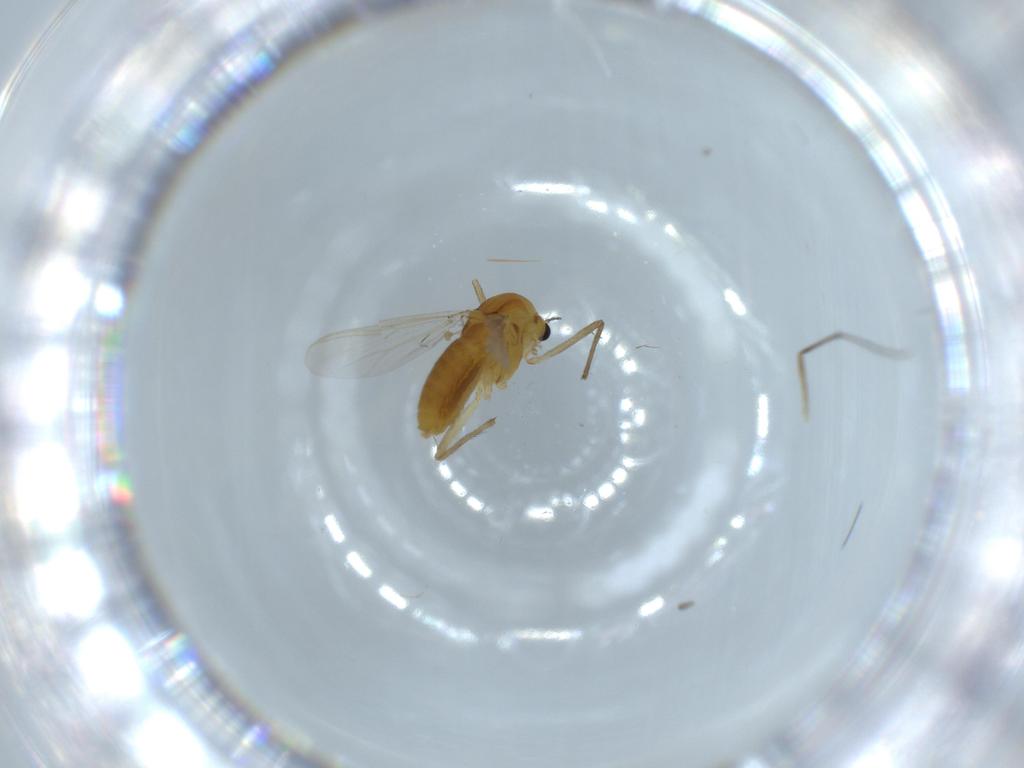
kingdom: Animalia
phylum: Arthropoda
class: Insecta
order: Diptera
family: Chironomidae
